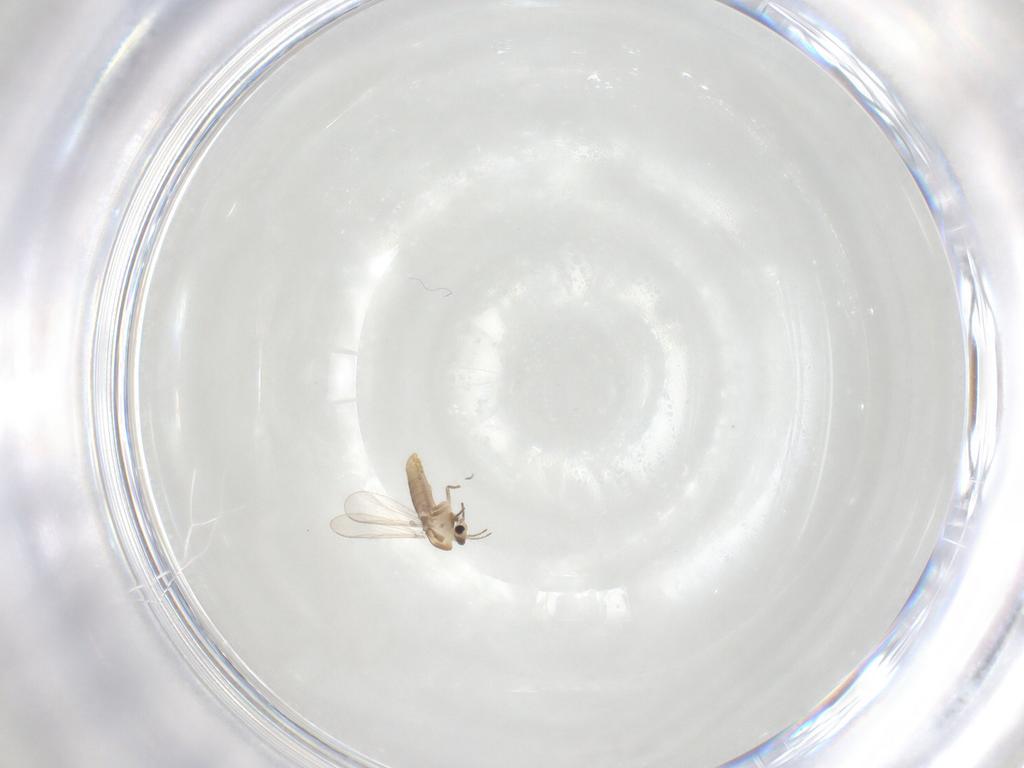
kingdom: Animalia
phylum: Arthropoda
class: Insecta
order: Diptera
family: Chironomidae
